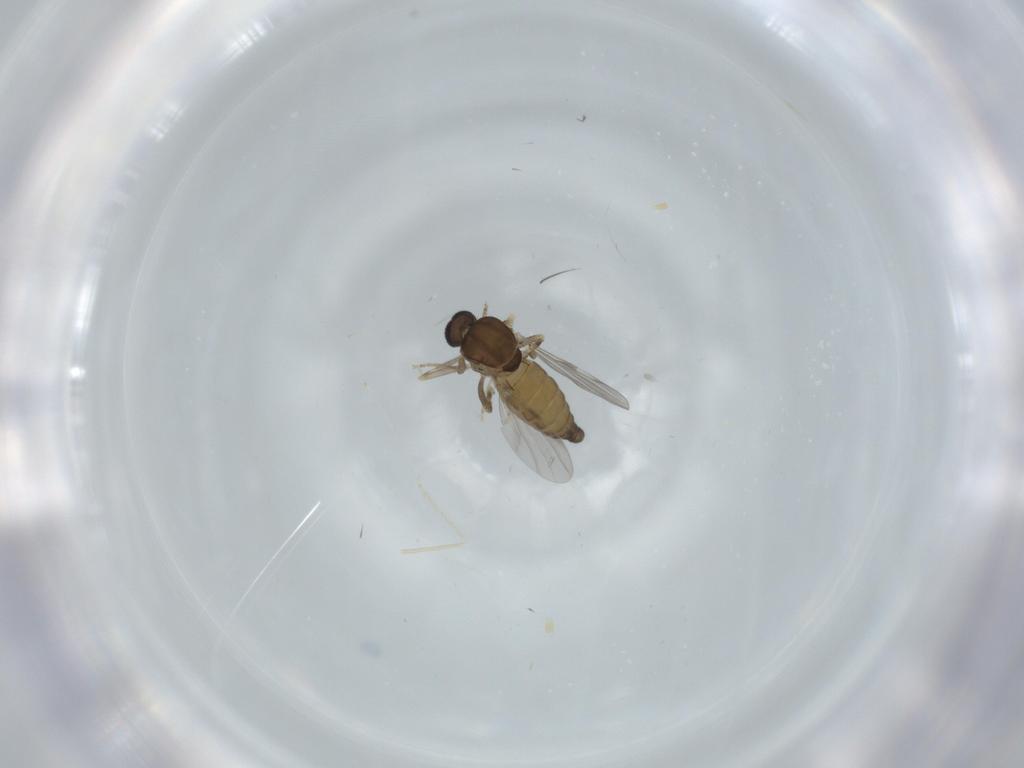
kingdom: Animalia
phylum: Arthropoda
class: Insecta
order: Diptera
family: Ceratopogonidae
